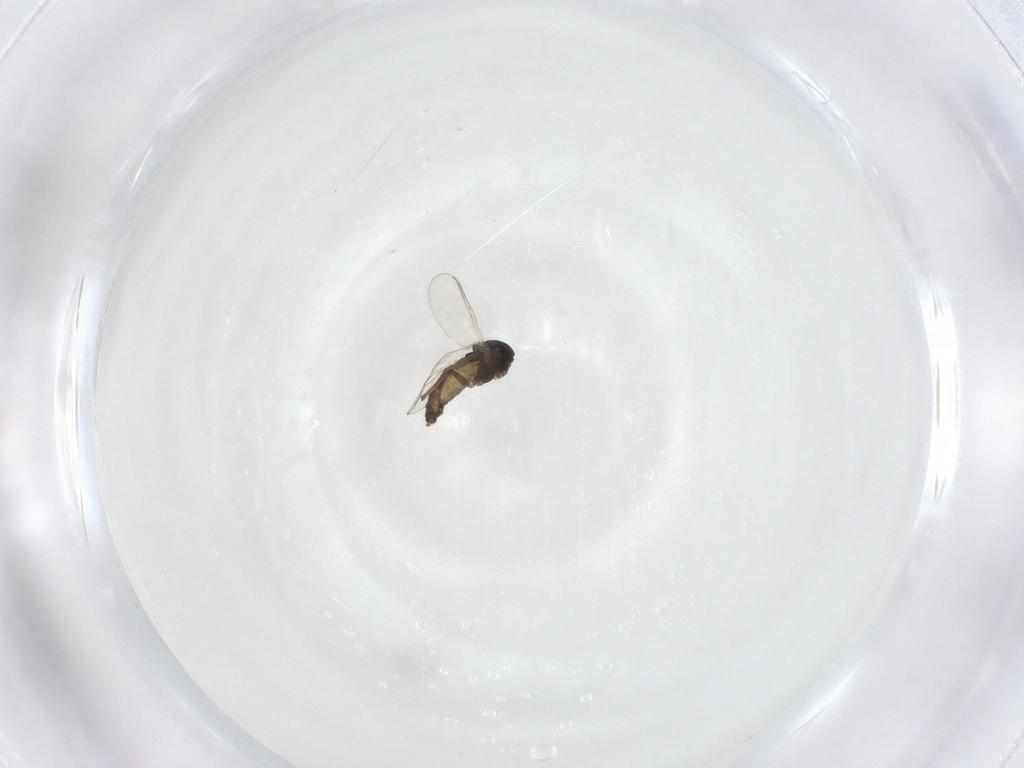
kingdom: Animalia
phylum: Arthropoda
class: Insecta
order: Diptera
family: Chironomidae
